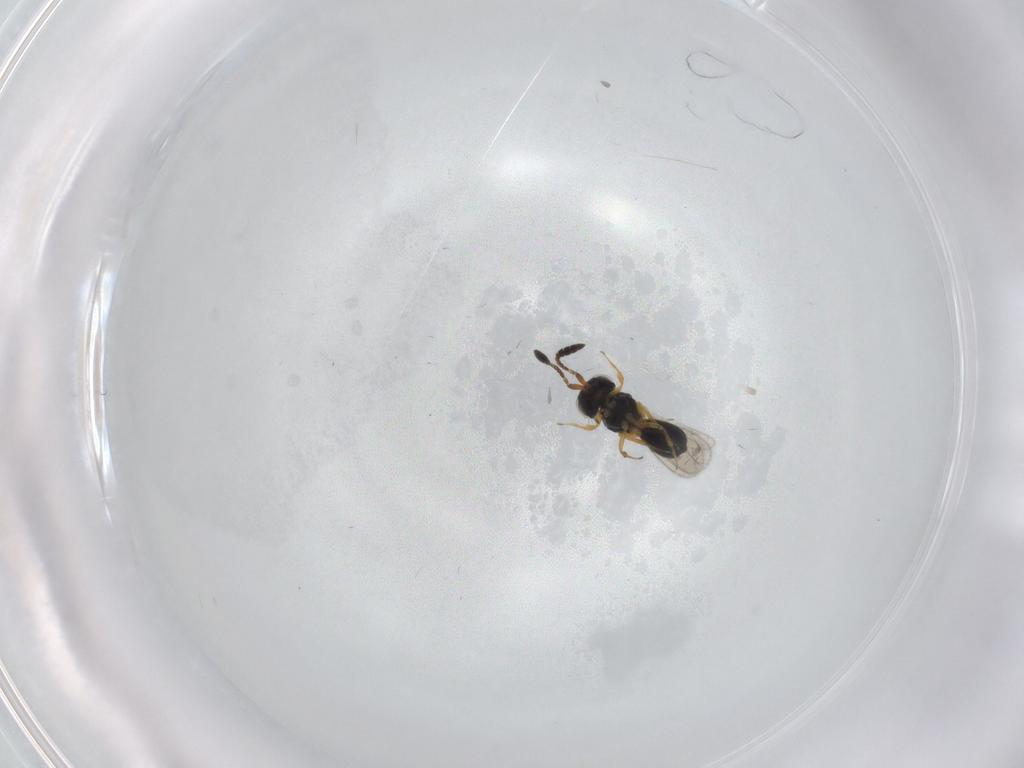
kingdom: Animalia
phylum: Arthropoda
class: Insecta
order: Hymenoptera
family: Scelionidae
